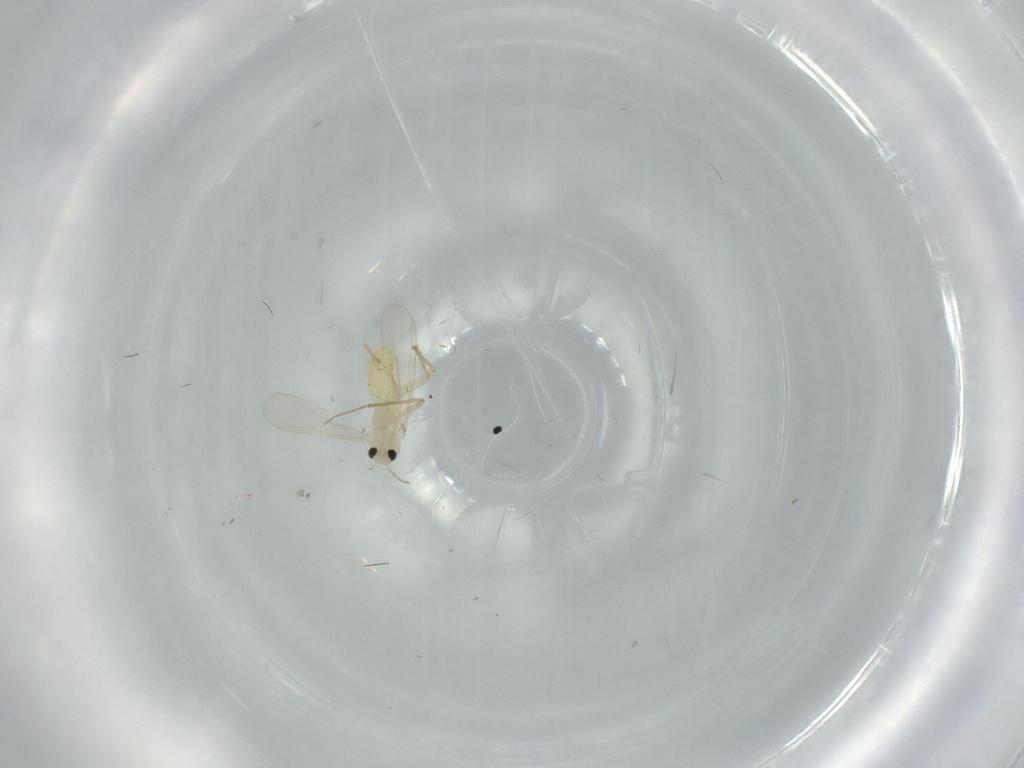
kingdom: Animalia
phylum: Arthropoda
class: Insecta
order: Diptera
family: Chironomidae
